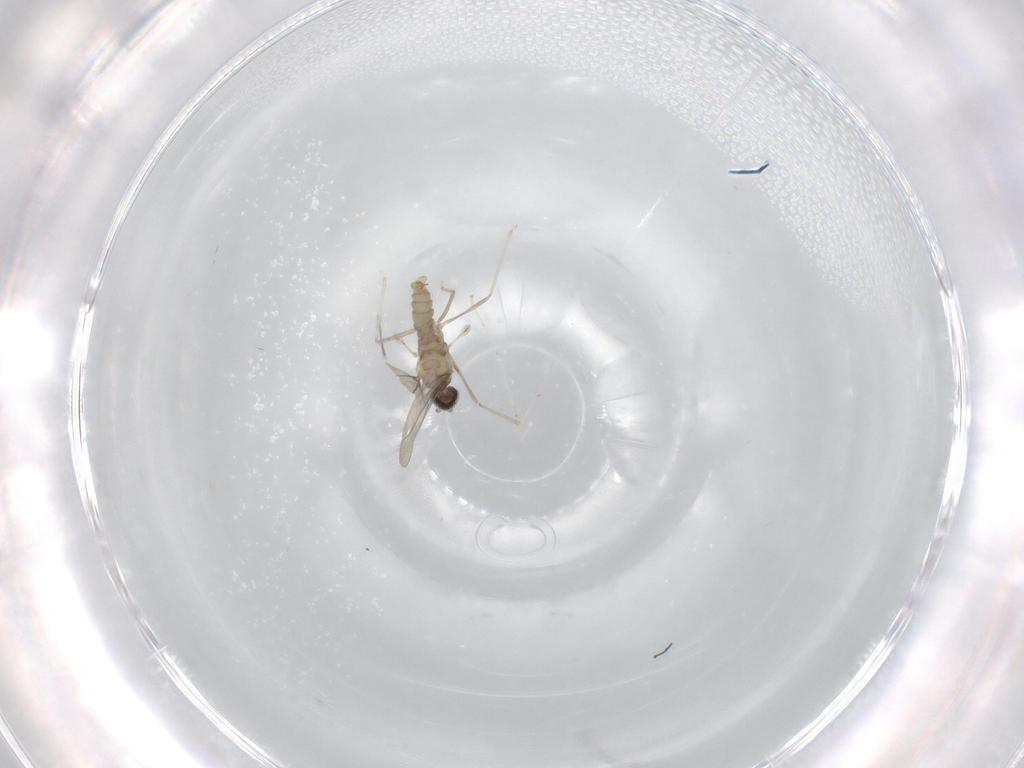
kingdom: Animalia
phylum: Arthropoda
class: Insecta
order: Diptera
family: Cecidomyiidae
